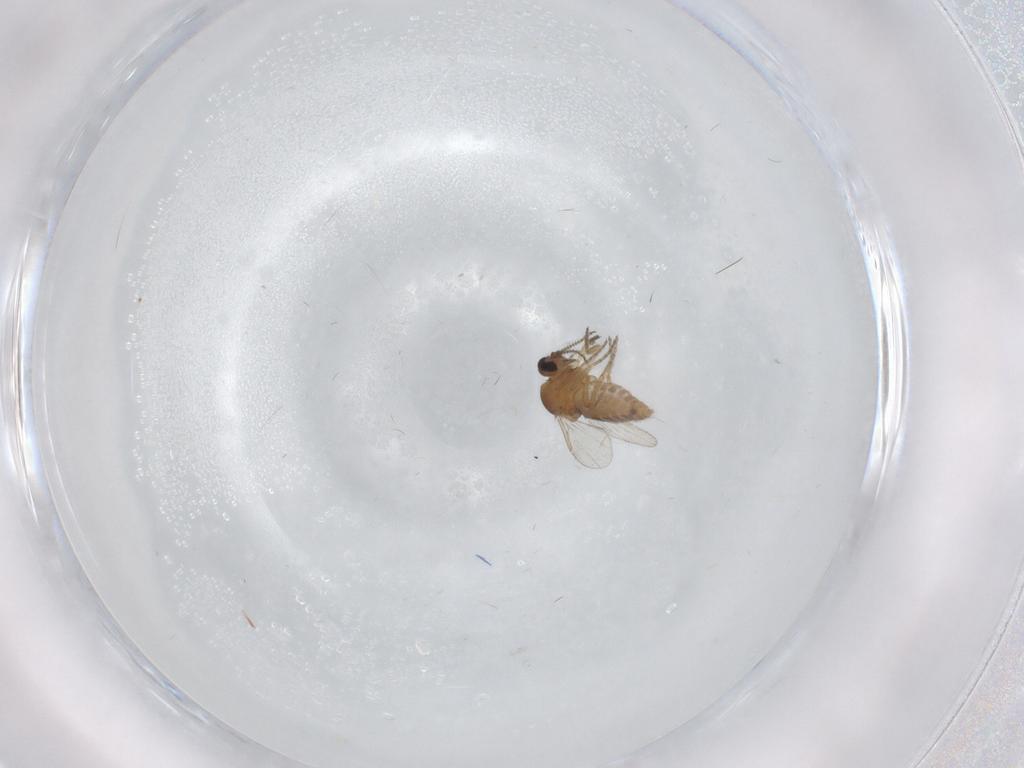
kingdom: Animalia
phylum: Arthropoda
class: Insecta
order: Diptera
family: Ceratopogonidae
